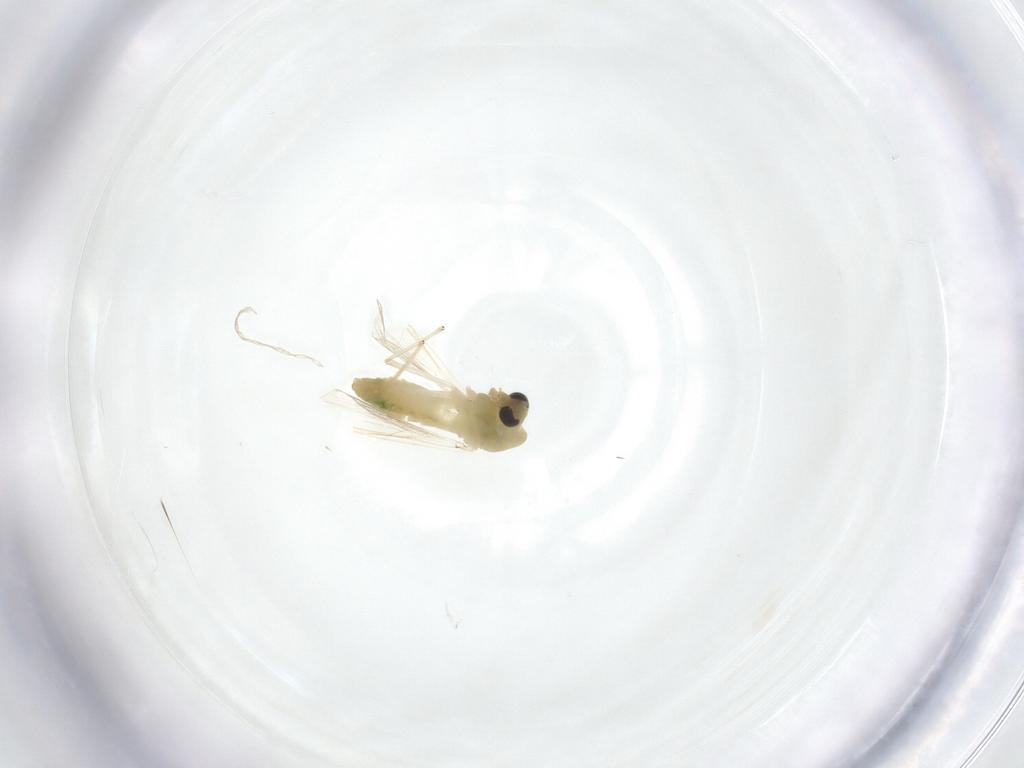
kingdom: Animalia
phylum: Arthropoda
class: Insecta
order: Diptera
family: Chironomidae
